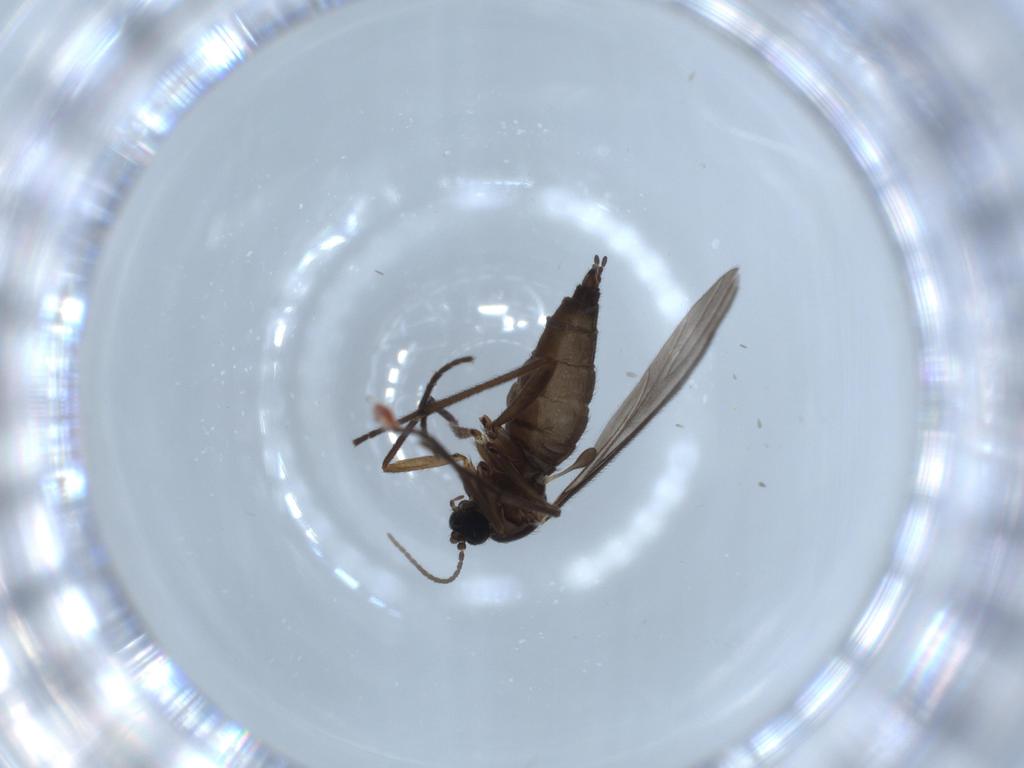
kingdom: Animalia
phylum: Arthropoda
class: Insecta
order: Diptera
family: Sciaridae
